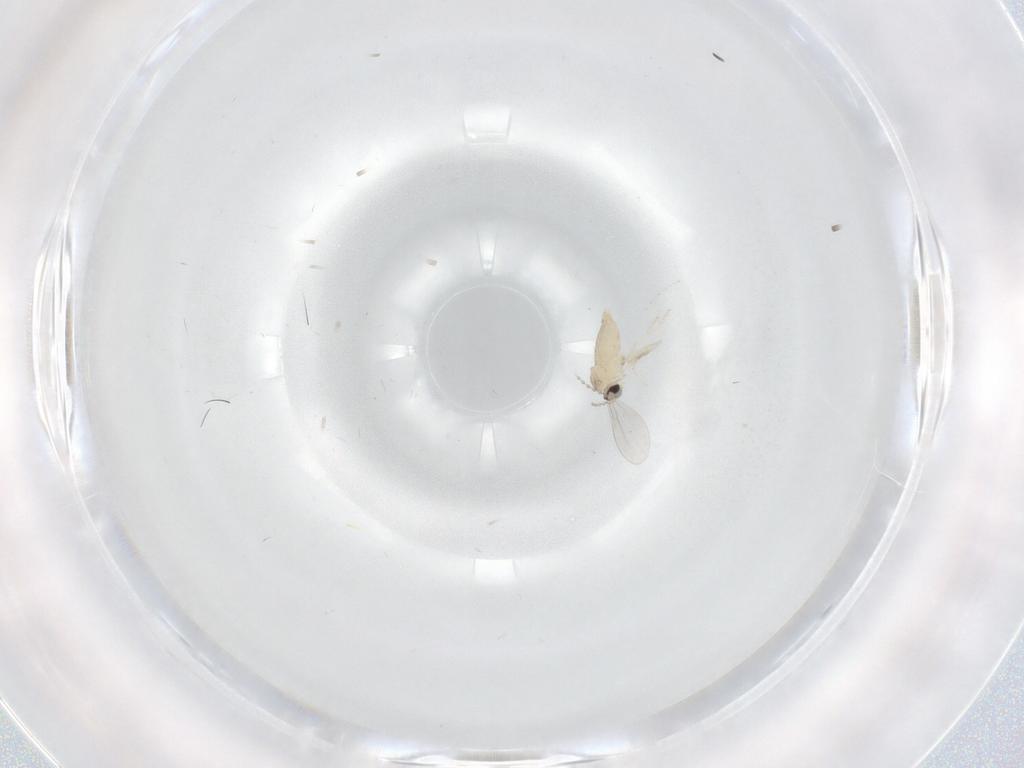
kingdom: Animalia
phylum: Arthropoda
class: Insecta
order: Diptera
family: Cecidomyiidae
